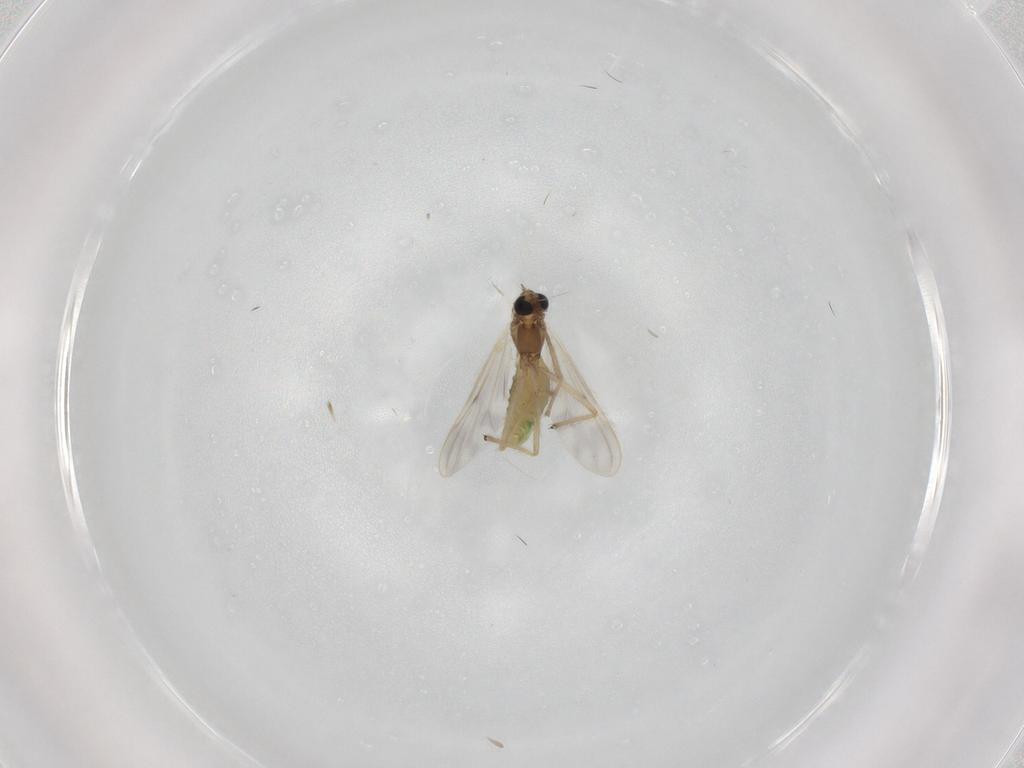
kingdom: Animalia
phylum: Arthropoda
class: Insecta
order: Diptera
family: Chironomidae
